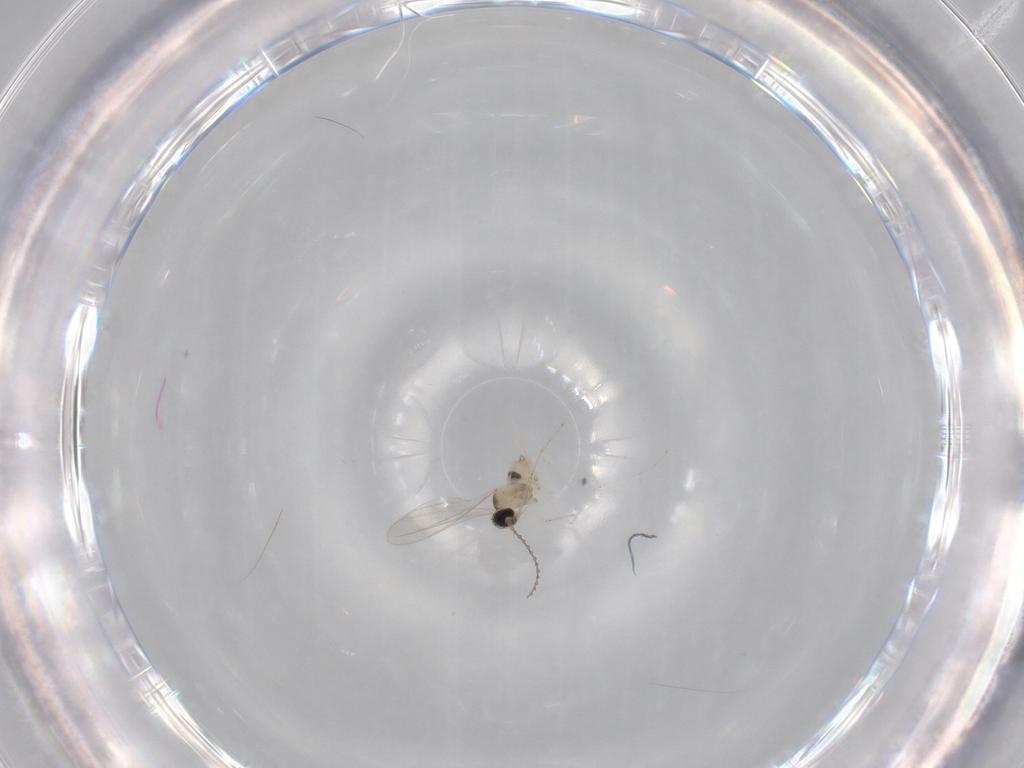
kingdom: Animalia
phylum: Arthropoda
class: Insecta
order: Diptera
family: Cecidomyiidae
